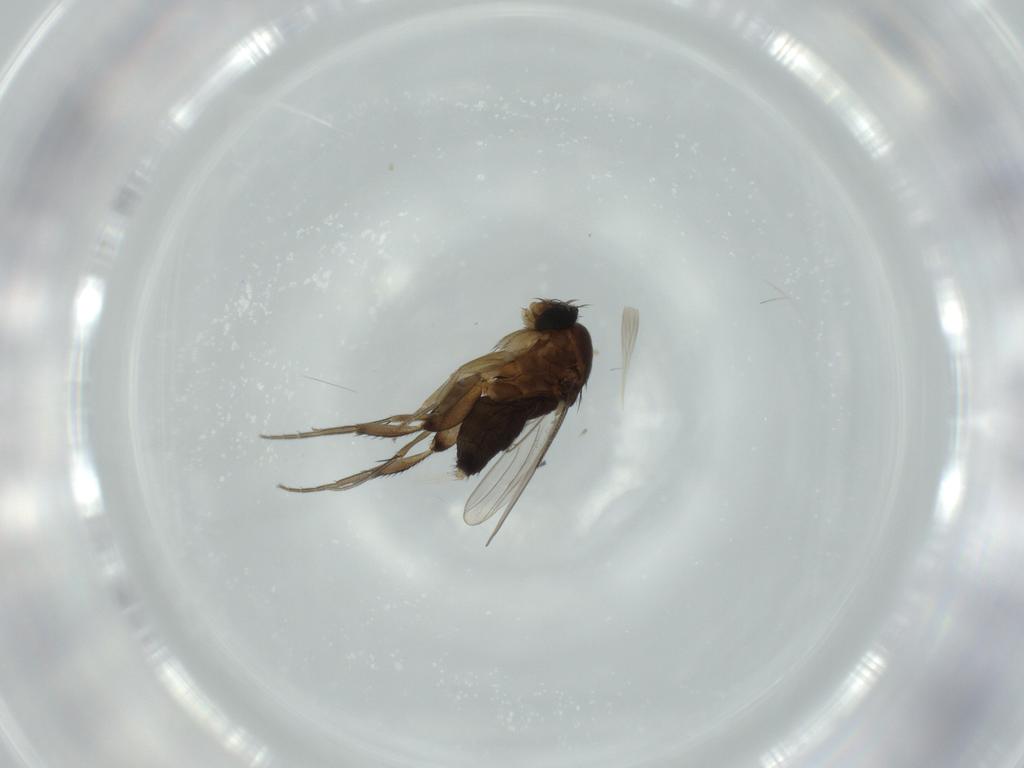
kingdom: Animalia
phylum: Arthropoda
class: Insecta
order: Diptera
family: Phoridae
